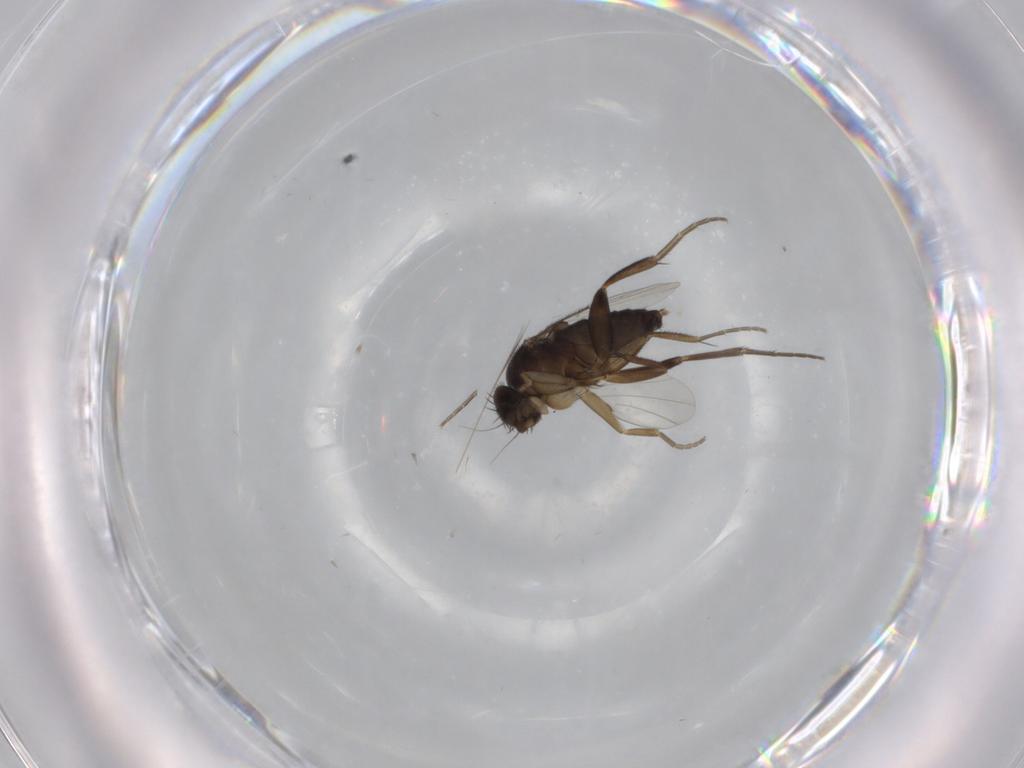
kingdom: Animalia
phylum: Arthropoda
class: Insecta
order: Diptera
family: Phoridae
